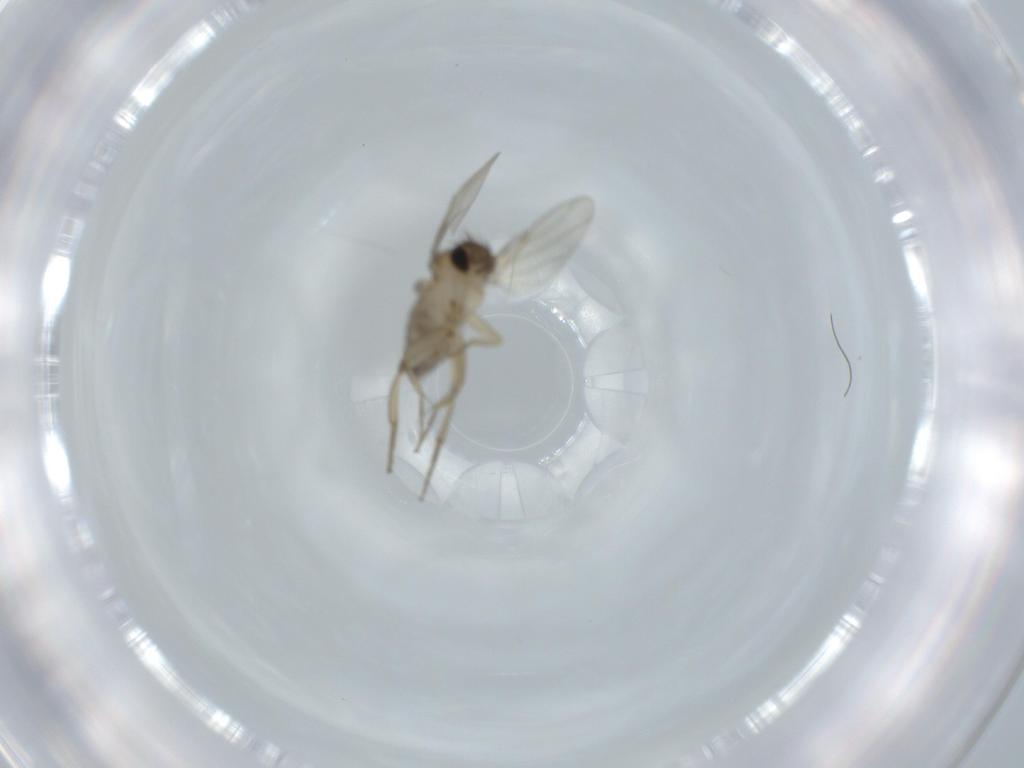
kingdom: Animalia
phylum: Arthropoda
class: Insecta
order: Diptera
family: Phoridae
